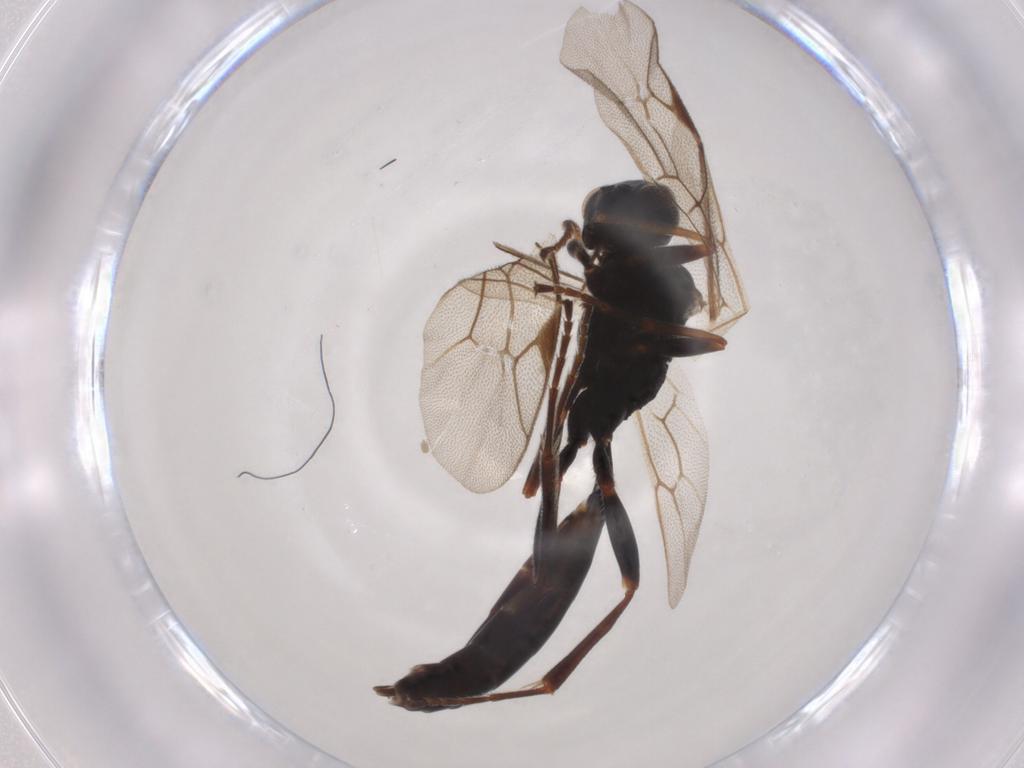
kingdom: Animalia
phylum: Arthropoda
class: Insecta
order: Hymenoptera
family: Ichneumonidae
